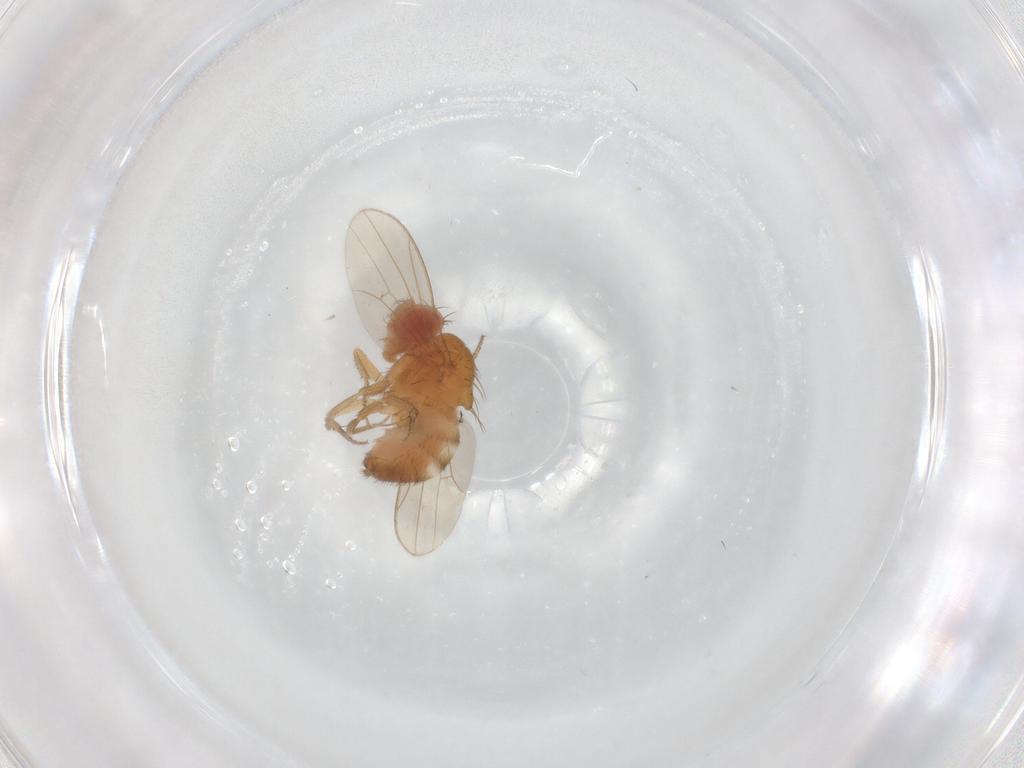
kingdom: Animalia
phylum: Arthropoda
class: Insecta
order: Diptera
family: Drosophilidae
